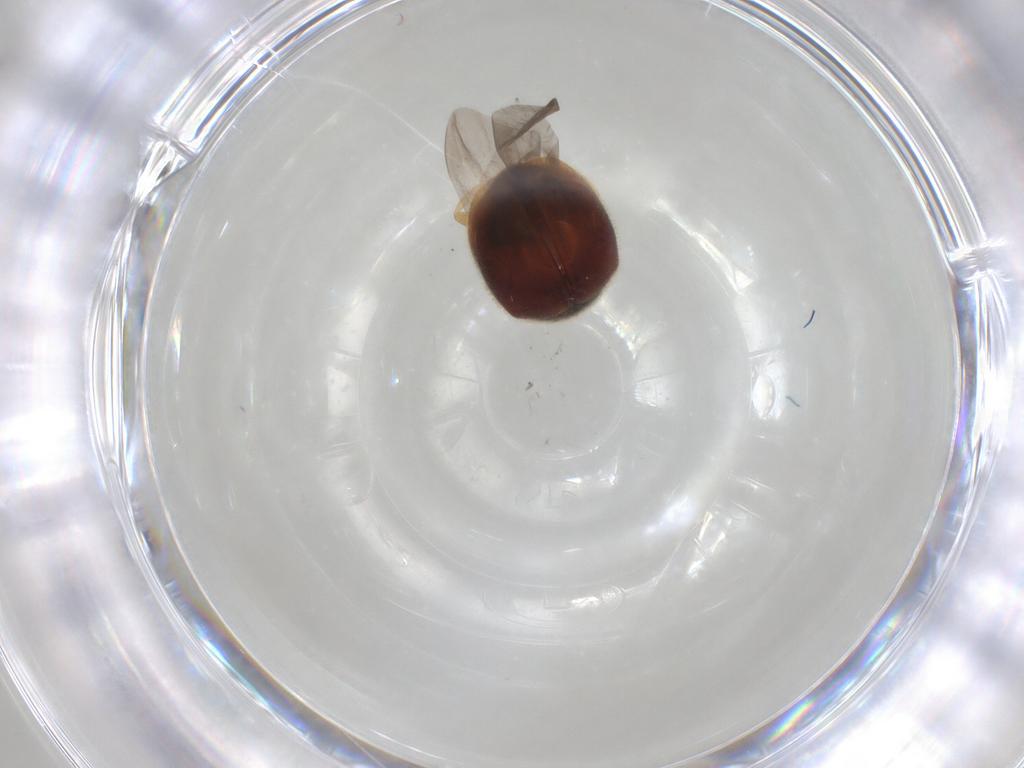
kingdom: Animalia
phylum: Arthropoda
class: Insecta
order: Coleoptera
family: Coccinellidae
